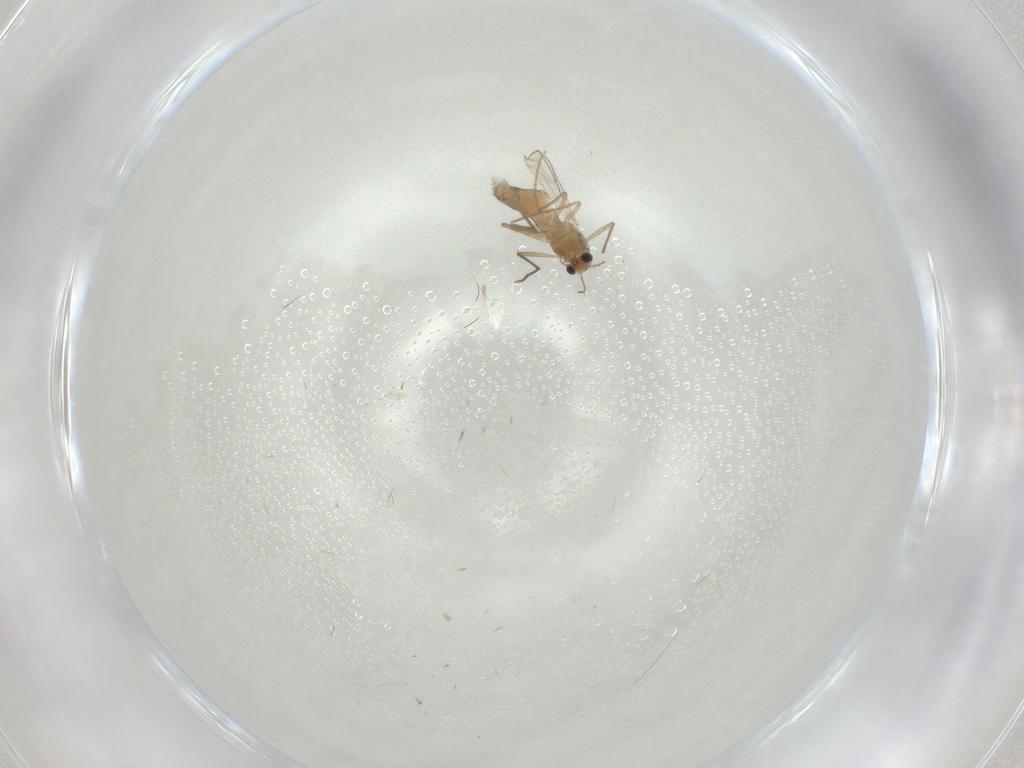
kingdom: Animalia
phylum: Arthropoda
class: Insecta
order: Diptera
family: Chironomidae
